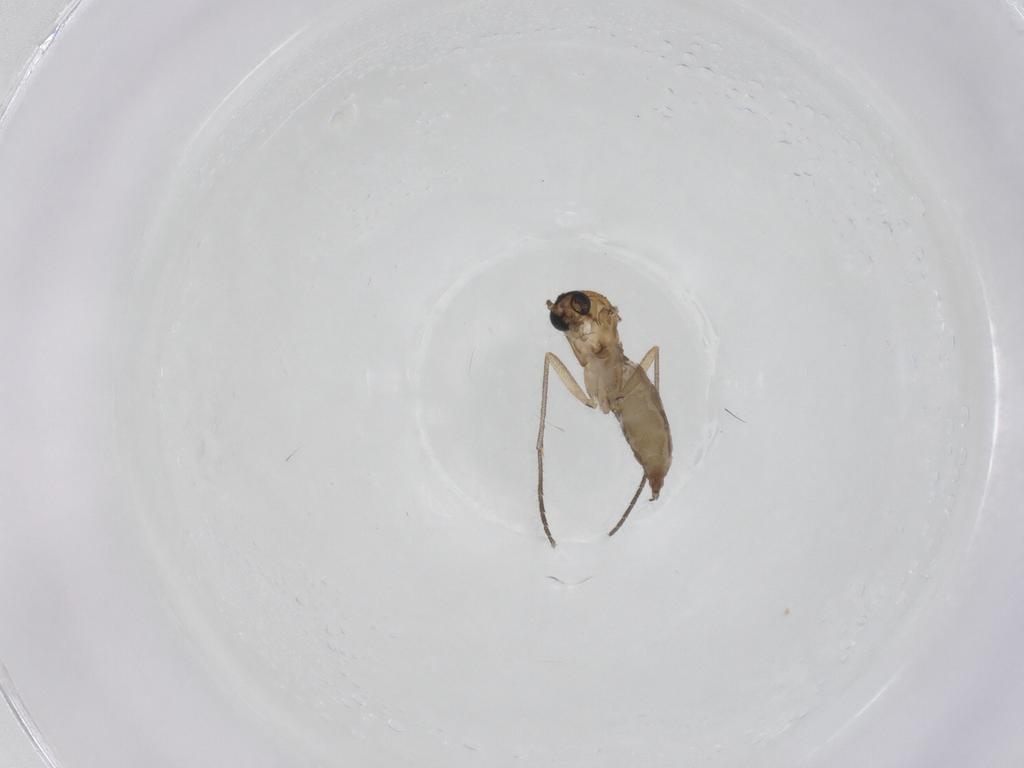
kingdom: Animalia
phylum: Arthropoda
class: Insecta
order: Diptera
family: Sciaridae
